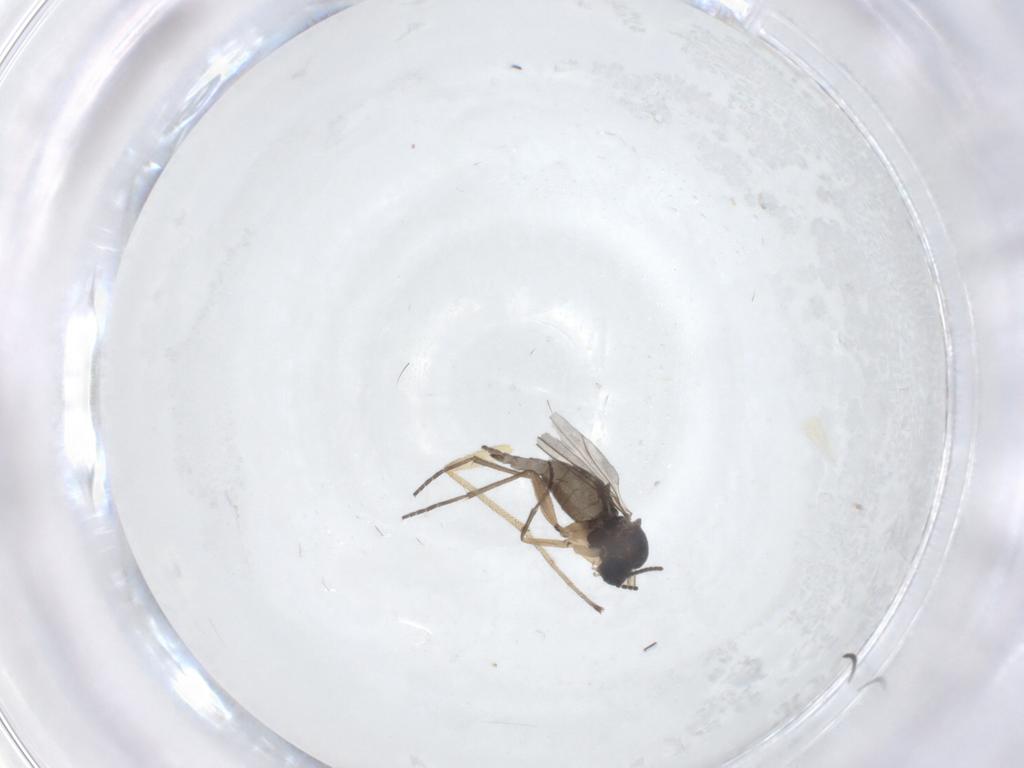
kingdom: Animalia
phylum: Arthropoda
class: Insecta
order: Diptera
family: Sciaridae
